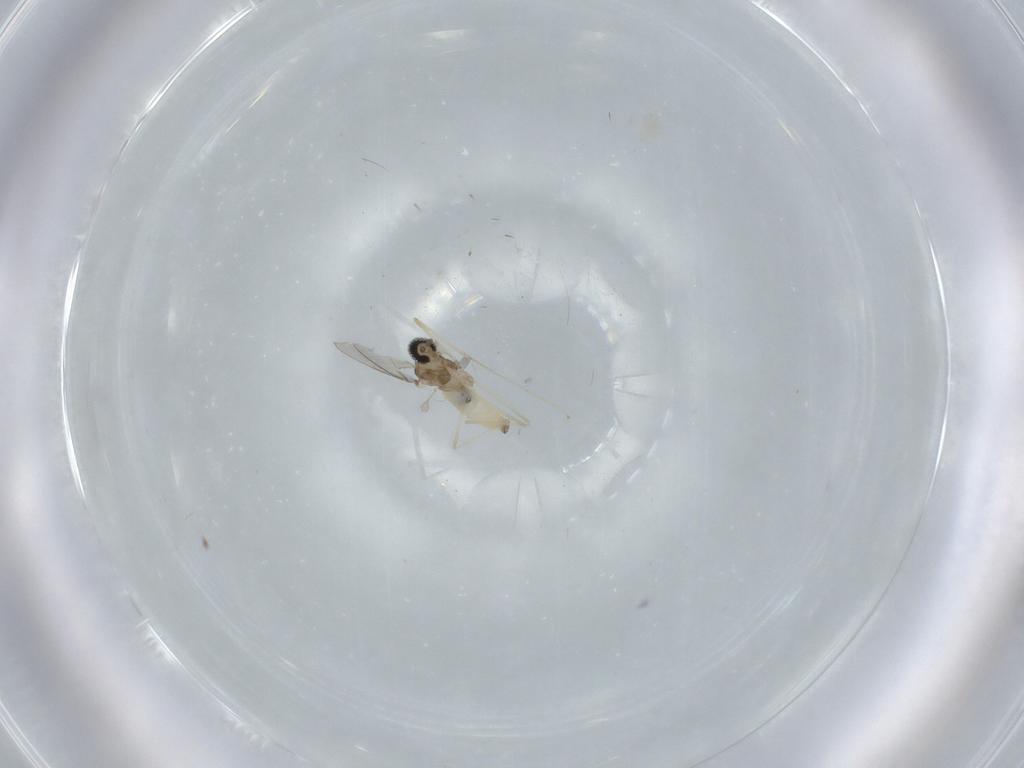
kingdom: Animalia
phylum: Arthropoda
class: Insecta
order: Diptera
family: Cecidomyiidae
